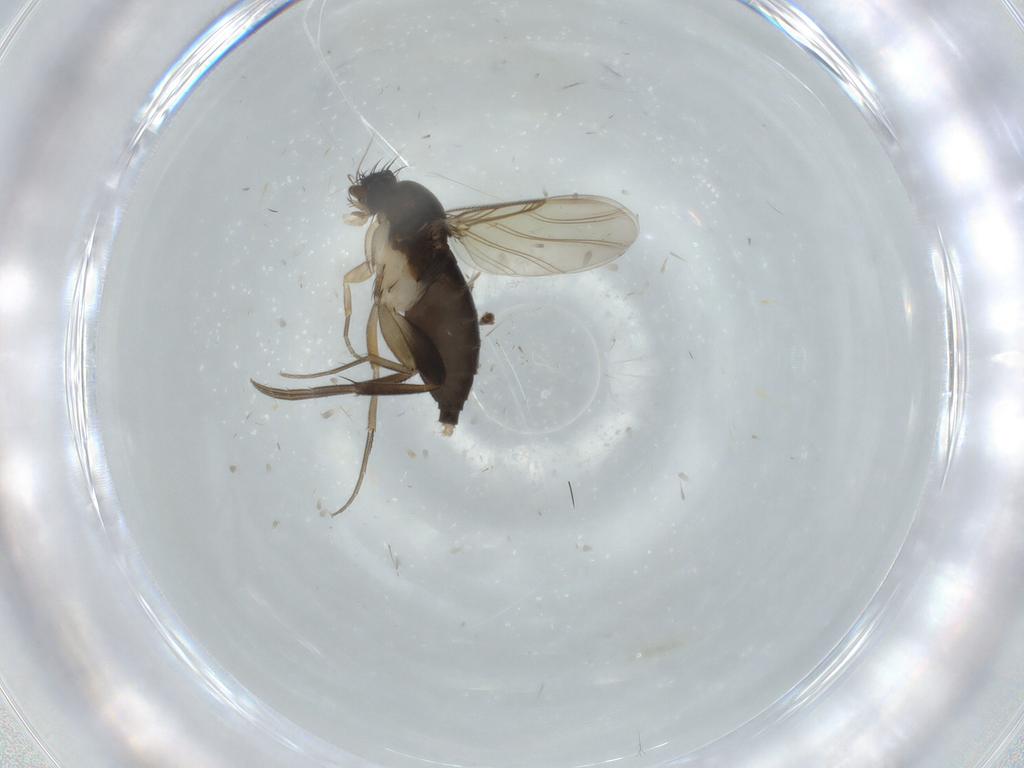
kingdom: Animalia
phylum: Arthropoda
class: Insecta
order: Diptera
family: Phoridae
